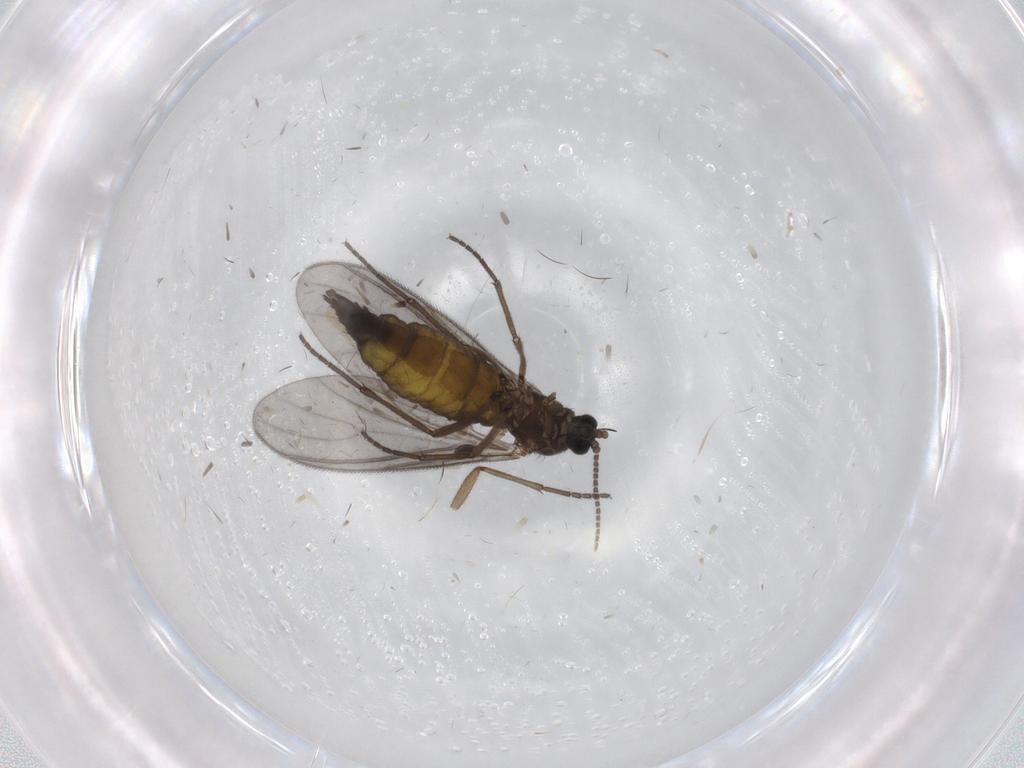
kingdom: Animalia
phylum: Arthropoda
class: Insecta
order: Diptera
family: Sciaridae
